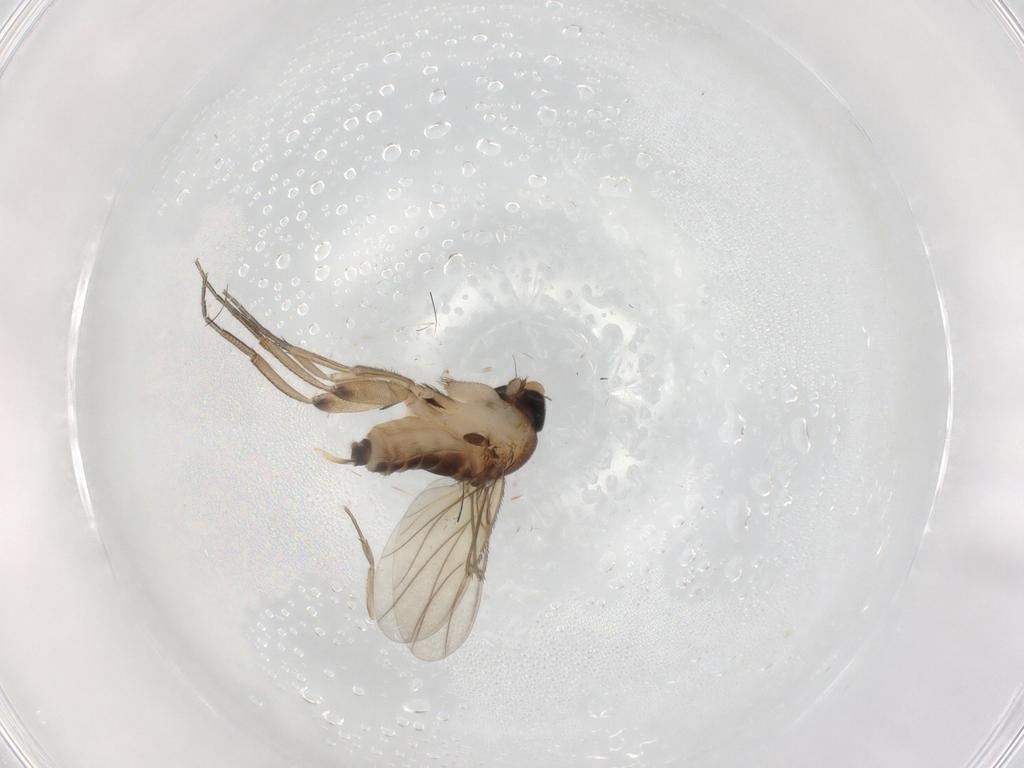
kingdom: Animalia
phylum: Arthropoda
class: Insecta
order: Diptera
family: Phoridae
